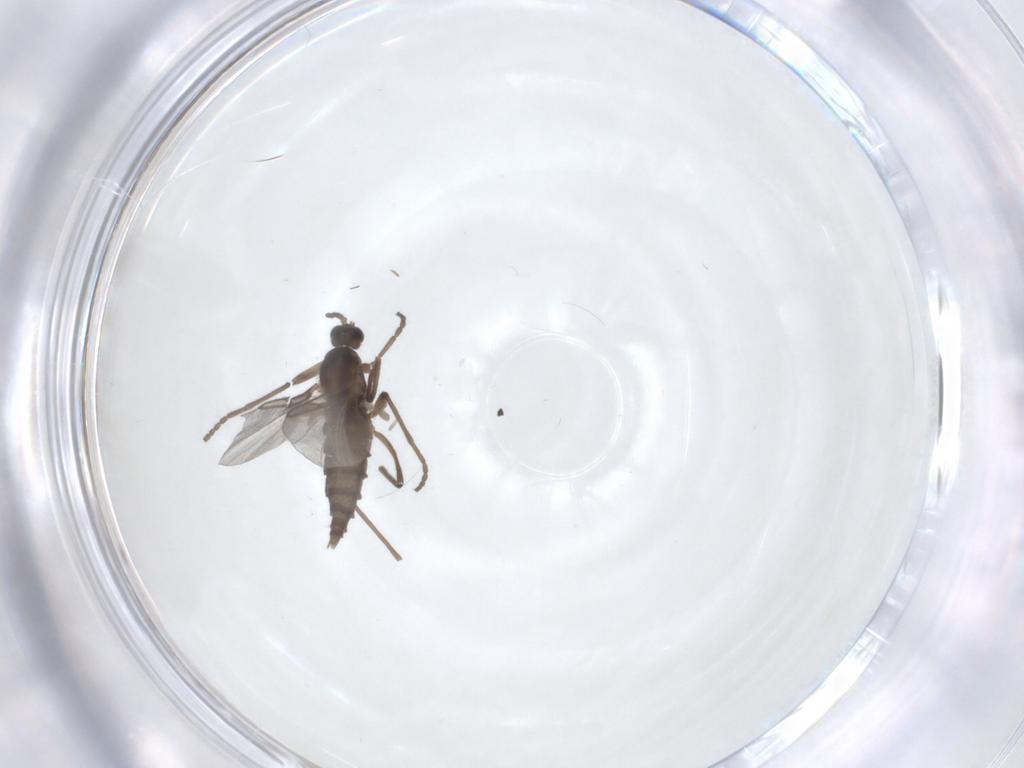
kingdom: Animalia
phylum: Arthropoda
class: Insecta
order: Diptera
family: Cecidomyiidae
